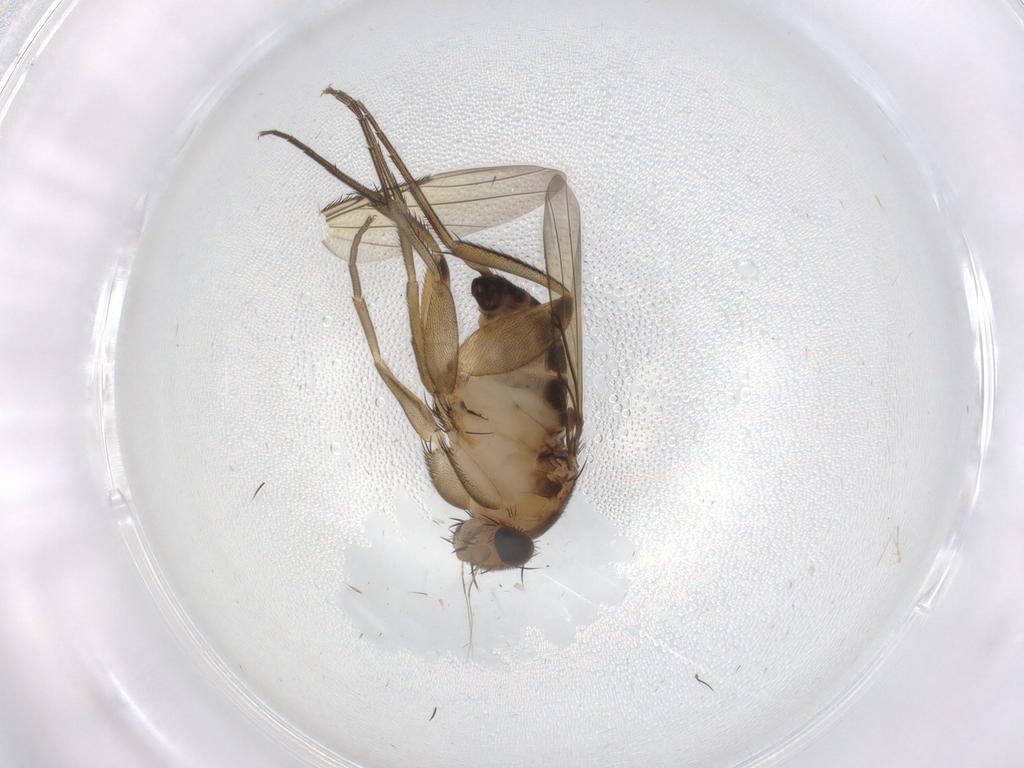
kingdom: Animalia
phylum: Arthropoda
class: Insecta
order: Diptera
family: Phoridae
